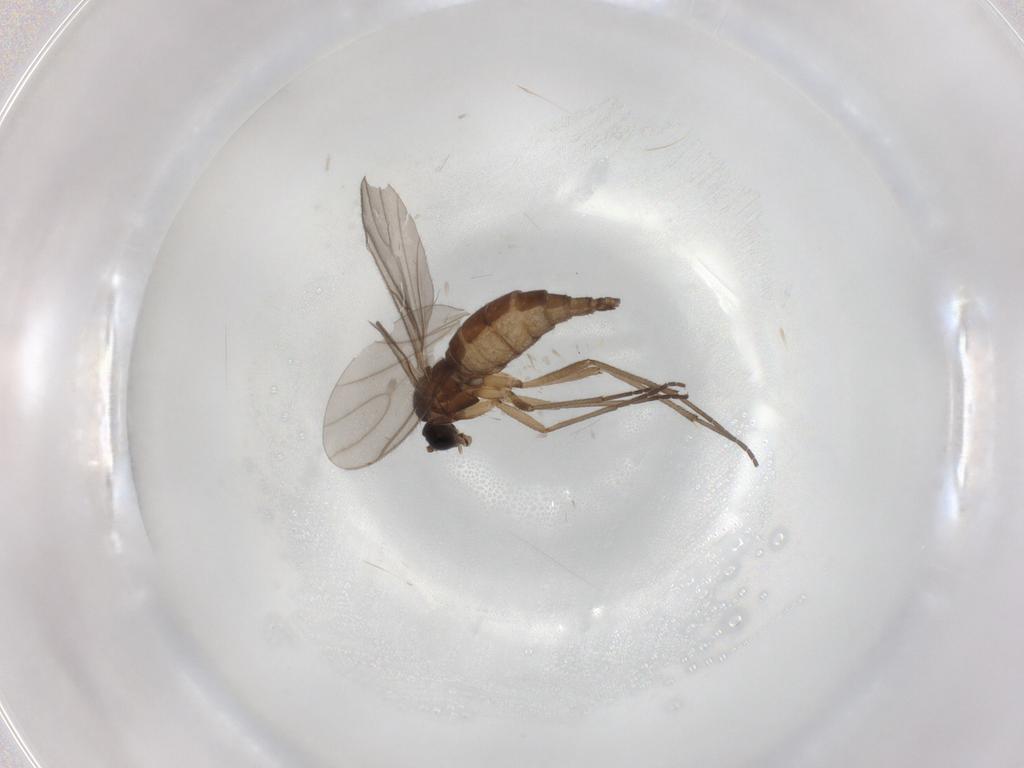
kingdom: Animalia
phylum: Arthropoda
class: Insecta
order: Diptera
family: Sciaridae
